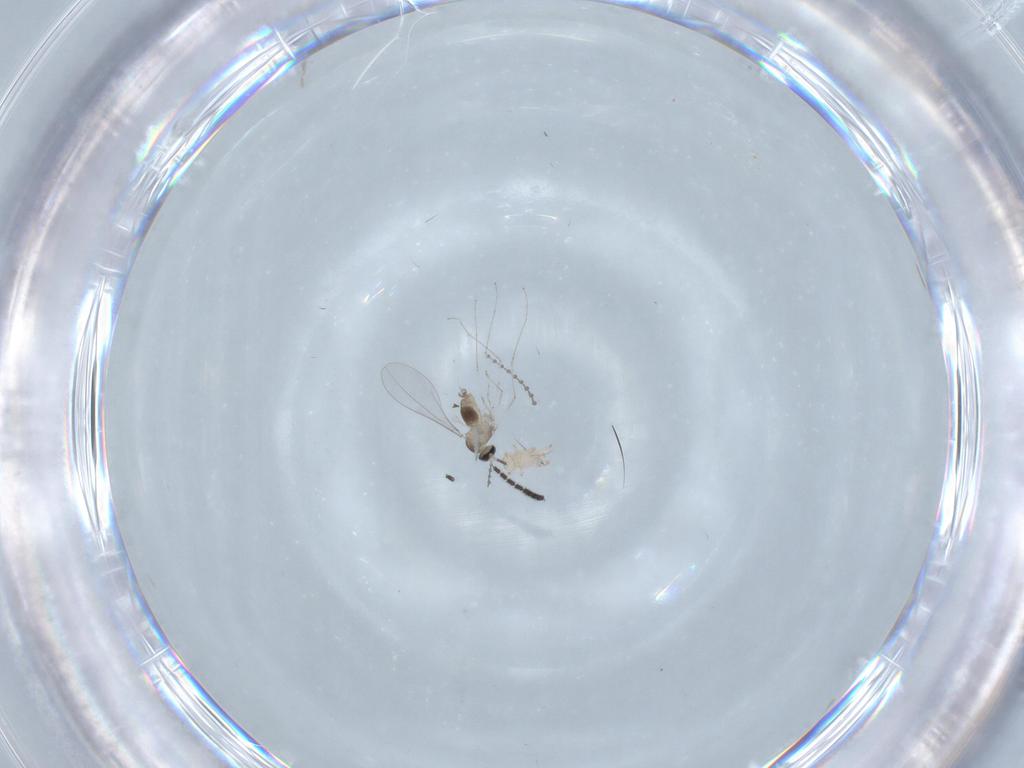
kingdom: Animalia
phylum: Arthropoda
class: Insecta
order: Diptera
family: Cecidomyiidae
